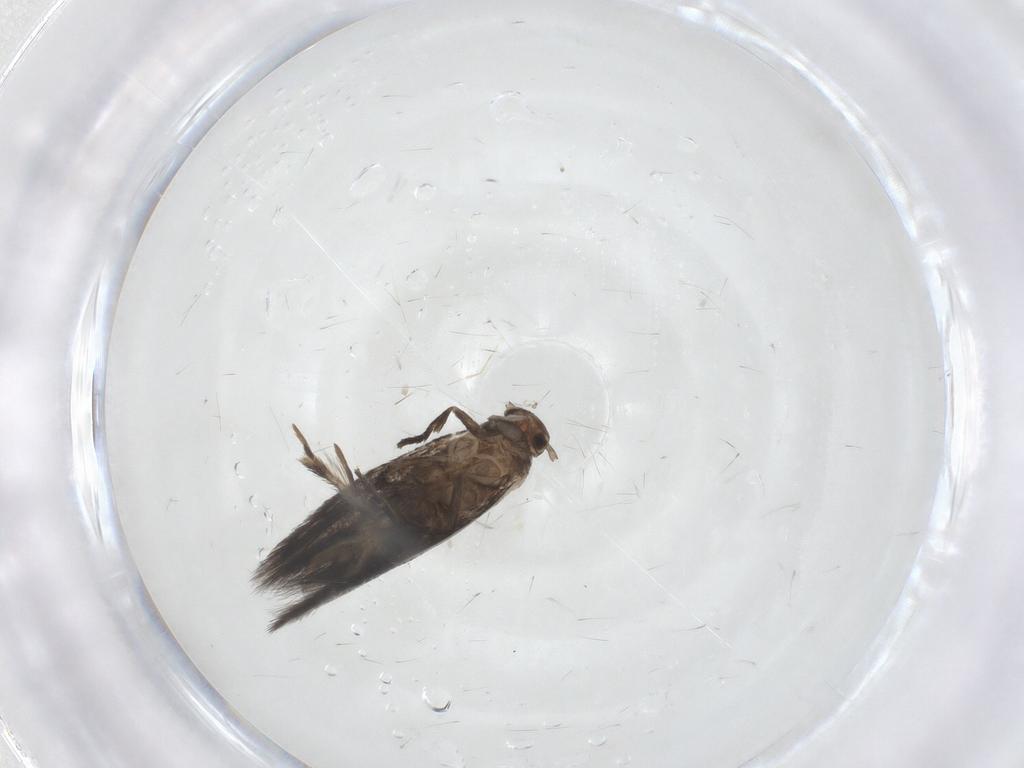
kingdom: Animalia
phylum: Arthropoda
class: Insecta
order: Lepidoptera
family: Elachistidae
